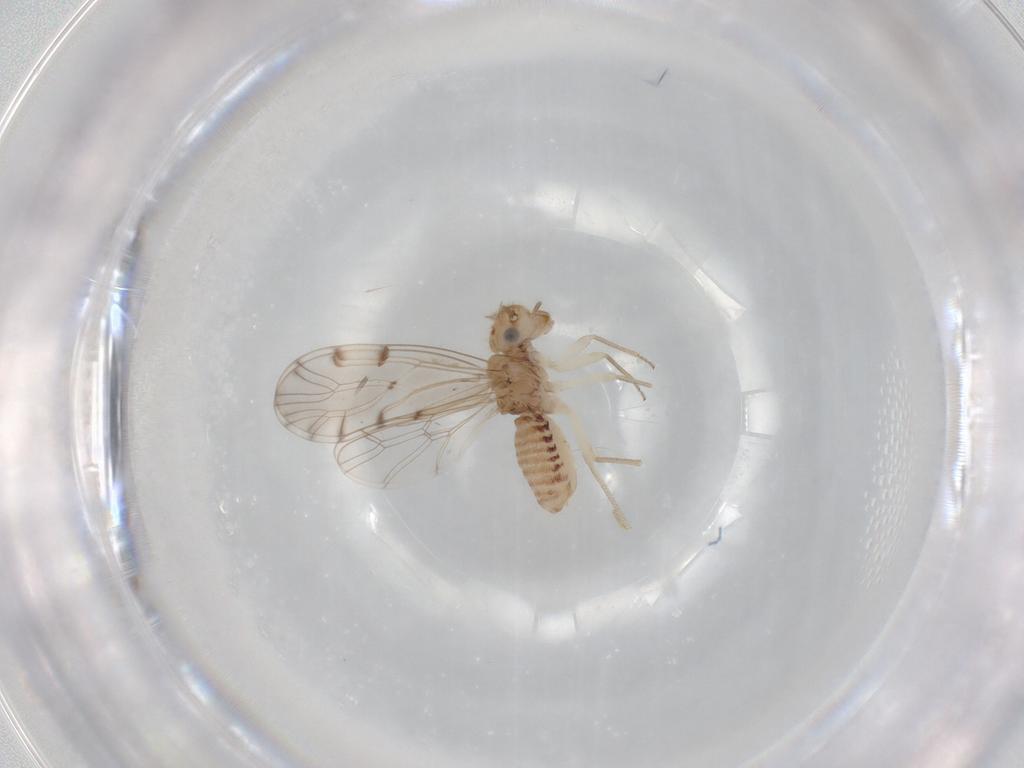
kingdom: Animalia
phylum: Arthropoda
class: Insecta
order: Psocodea
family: Ectopsocidae
